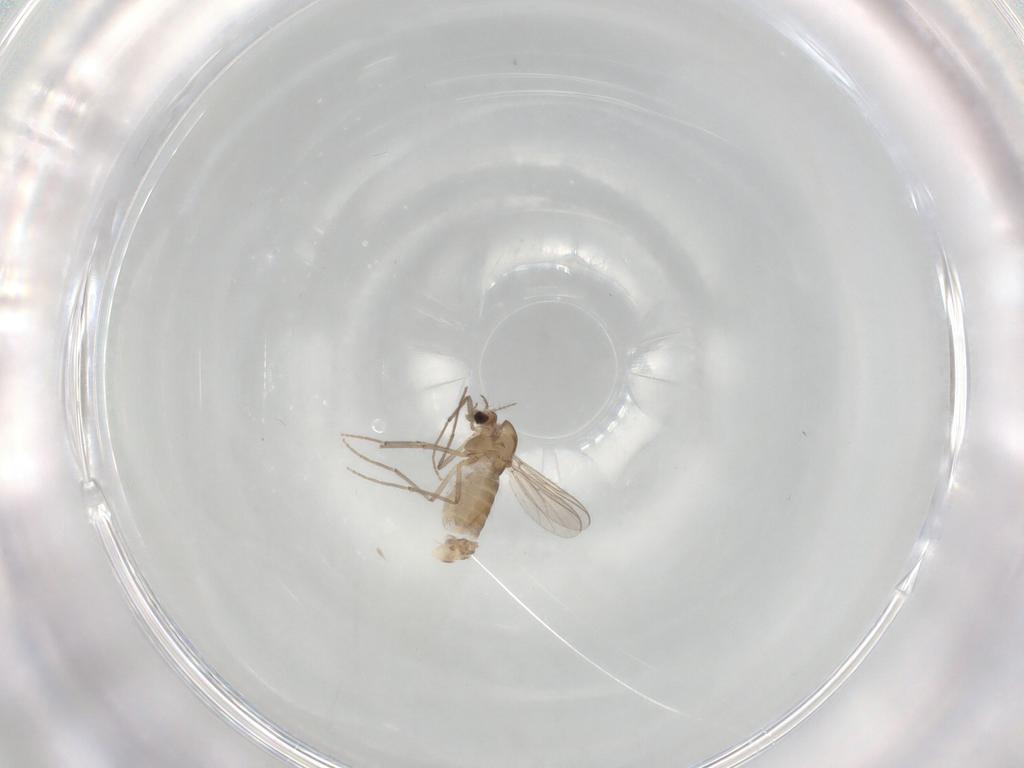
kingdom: Animalia
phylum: Arthropoda
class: Insecta
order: Diptera
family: Chironomidae
